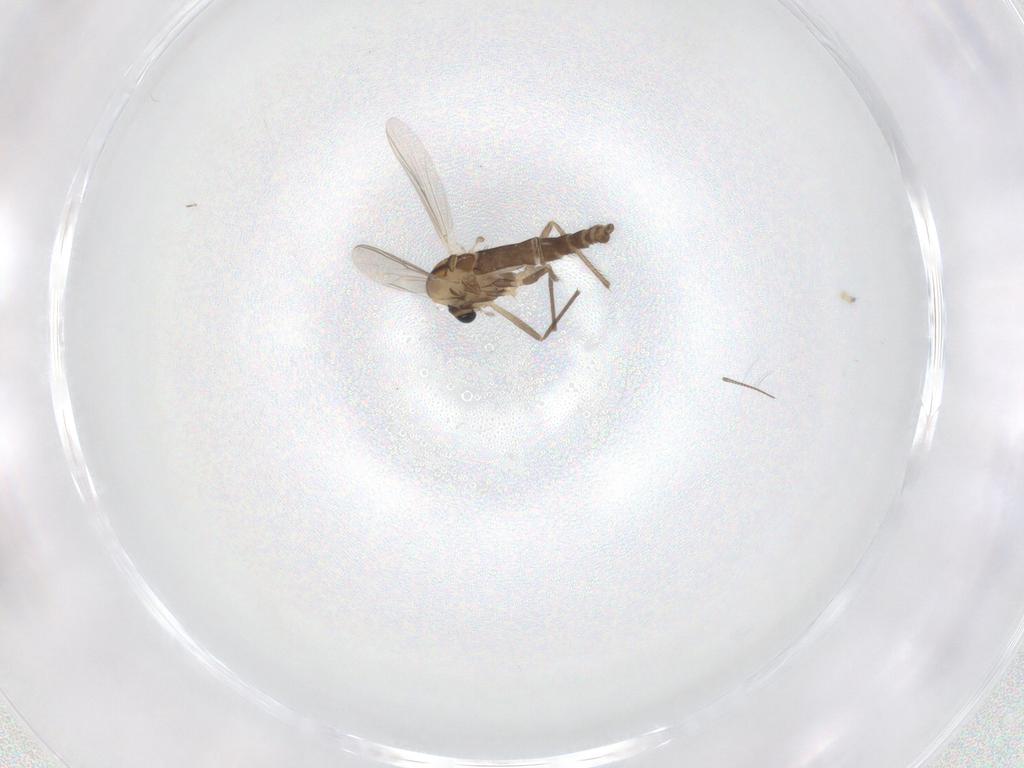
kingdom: Animalia
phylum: Arthropoda
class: Insecta
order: Diptera
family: Chironomidae
